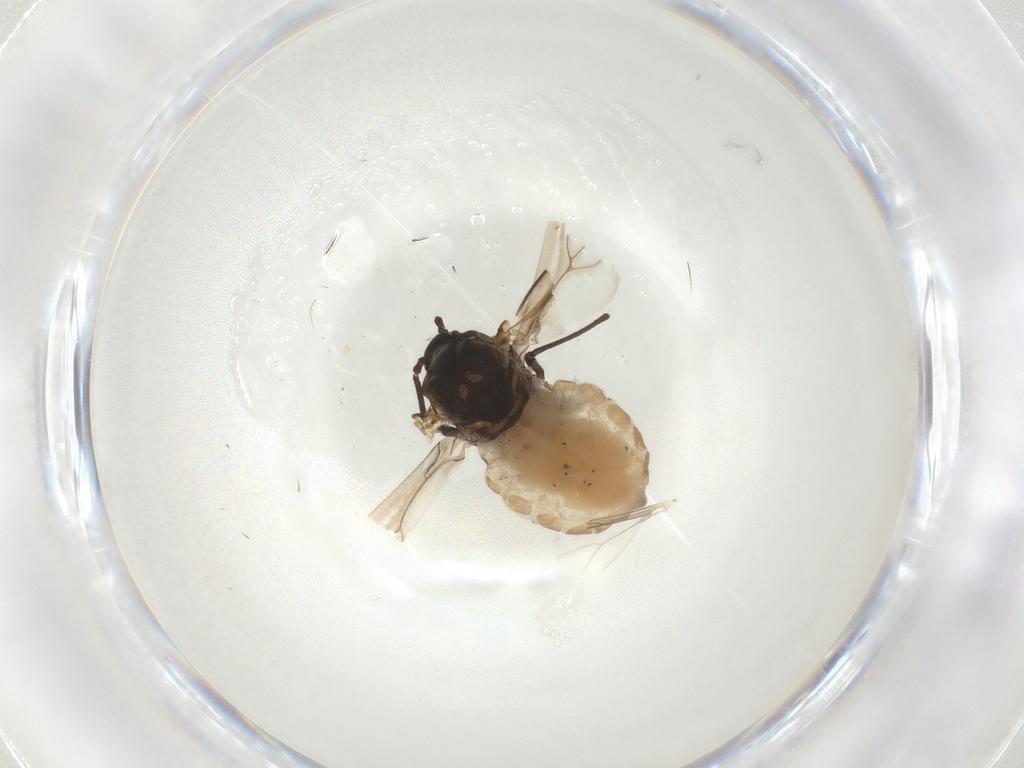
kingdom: Animalia
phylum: Arthropoda
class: Insecta
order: Hemiptera
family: Aphididae
